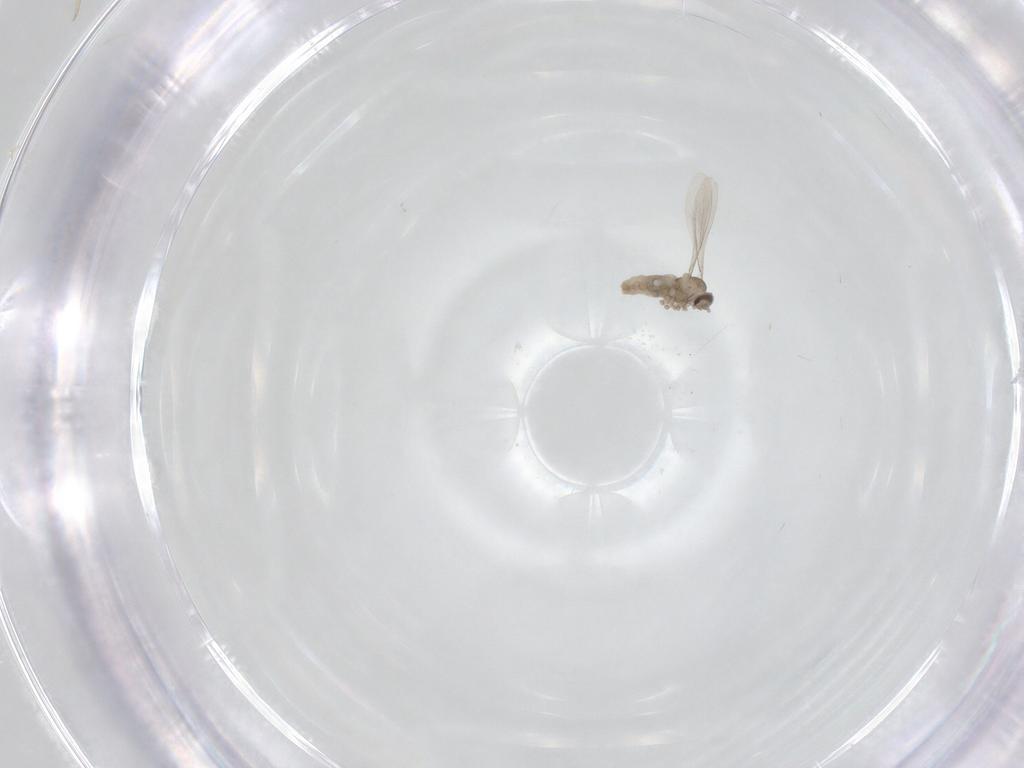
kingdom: Animalia
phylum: Arthropoda
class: Insecta
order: Diptera
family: Cecidomyiidae
